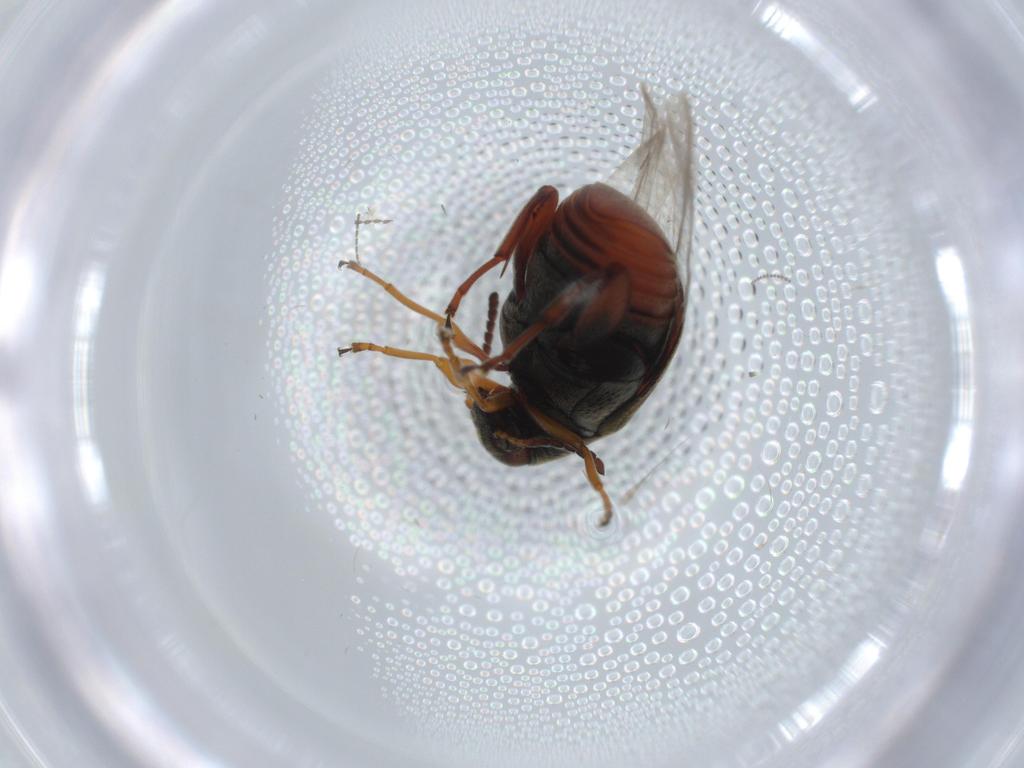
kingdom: Animalia
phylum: Arthropoda
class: Insecta
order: Coleoptera
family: Chrysomelidae
